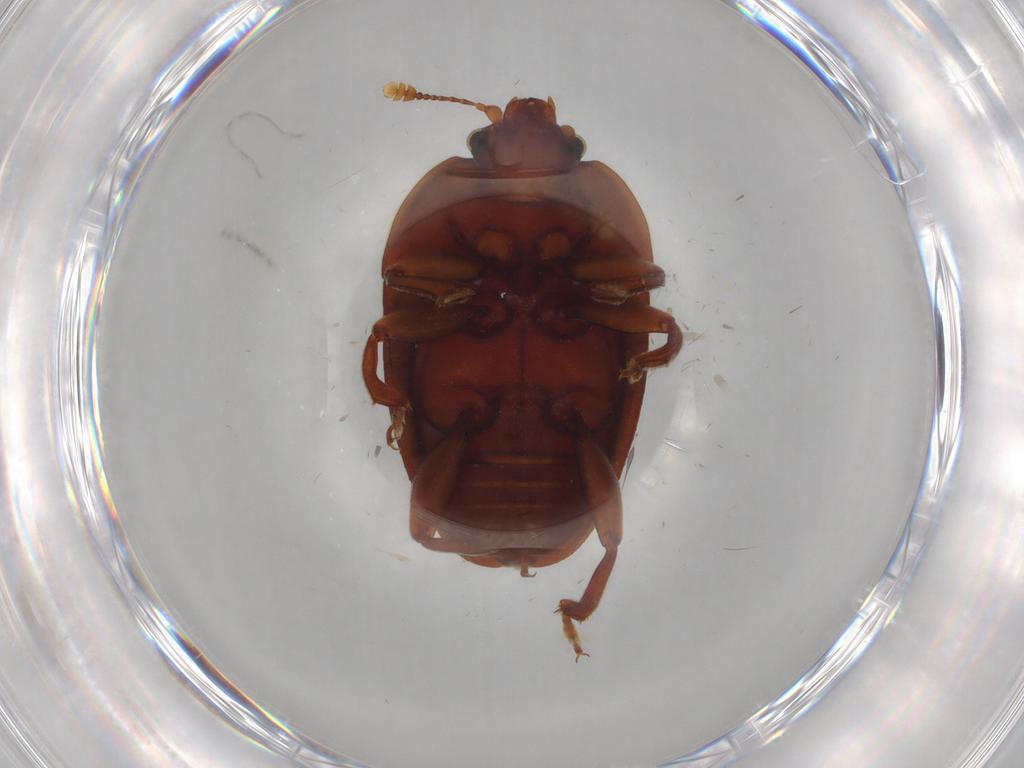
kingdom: Animalia
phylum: Arthropoda
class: Insecta
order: Coleoptera
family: Nitidulidae
